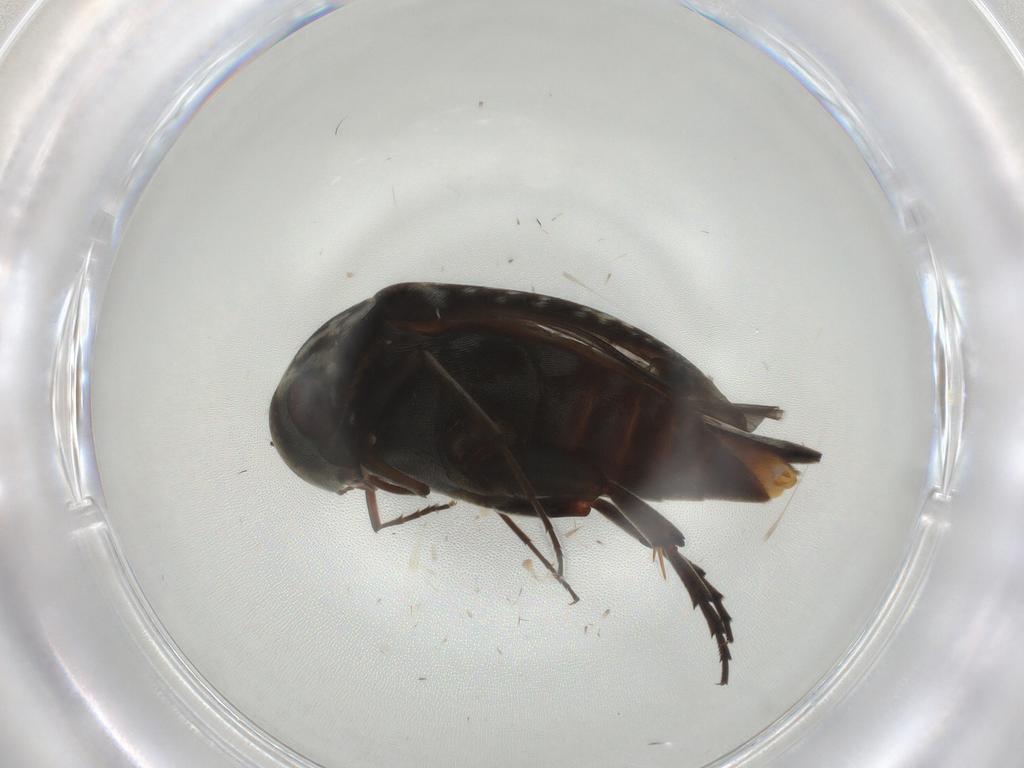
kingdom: Animalia
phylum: Arthropoda
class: Insecta
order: Coleoptera
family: Mordellidae
